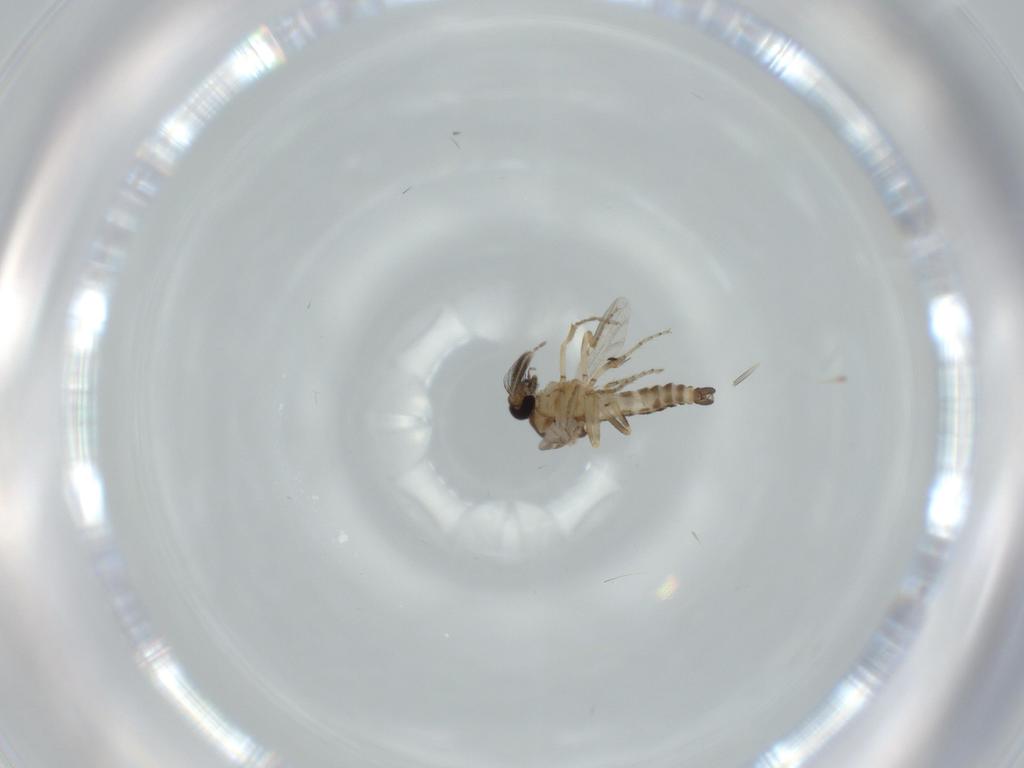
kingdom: Animalia
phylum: Arthropoda
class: Insecta
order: Diptera
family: Ceratopogonidae
